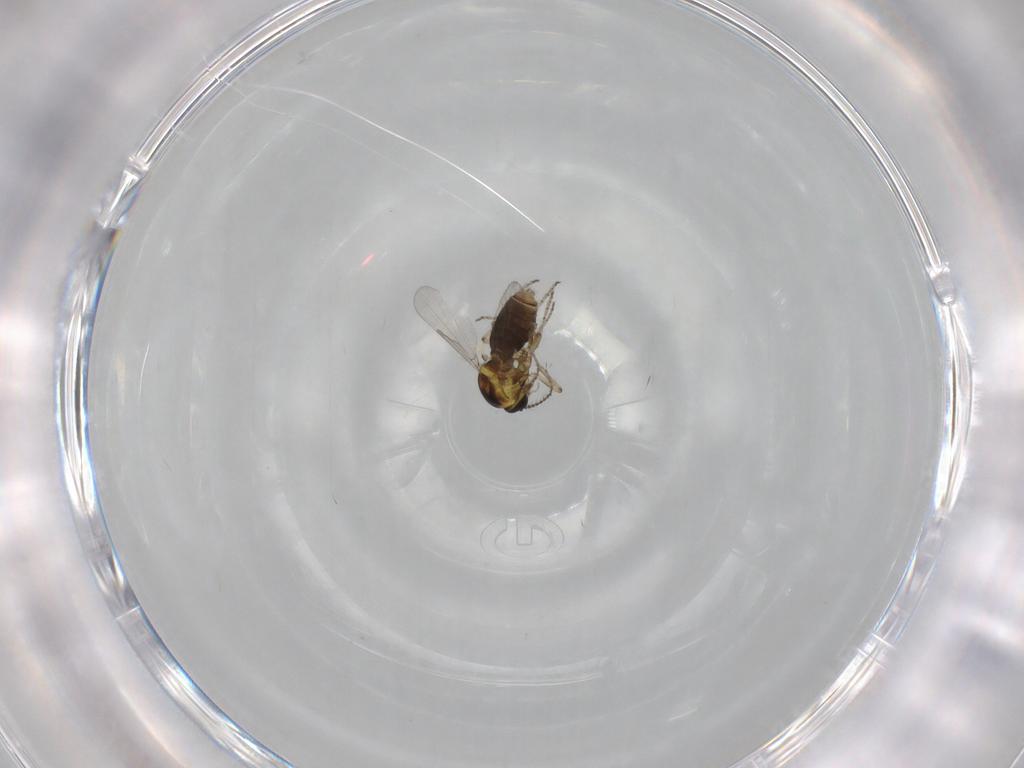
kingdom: Animalia
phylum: Arthropoda
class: Insecta
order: Diptera
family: Ceratopogonidae
